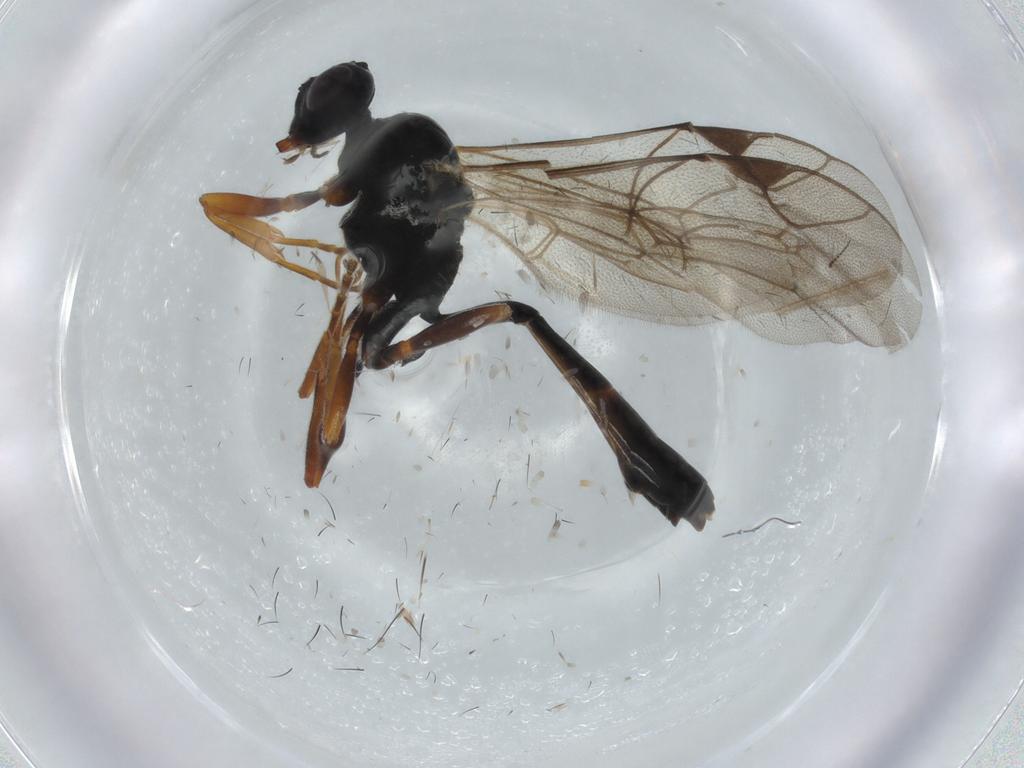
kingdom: Animalia
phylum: Arthropoda
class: Insecta
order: Hymenoptera
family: Ichneumonidae
